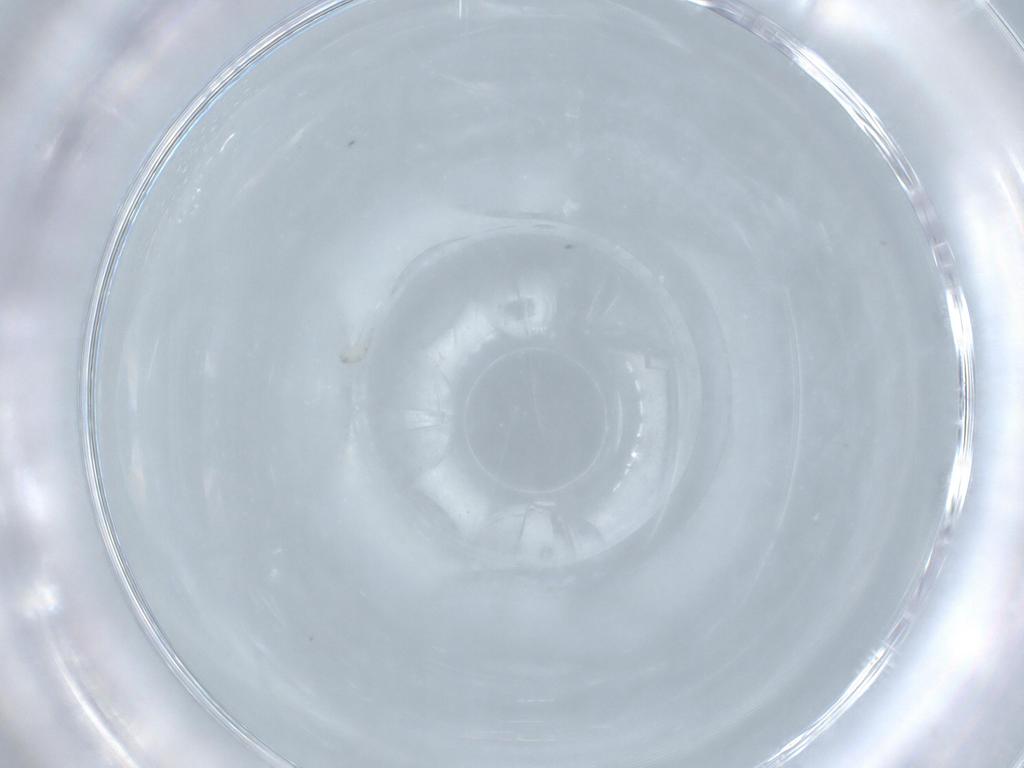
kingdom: Animalia
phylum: Arthropoda
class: Arachnida
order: Araneae
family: Linyphiidae
